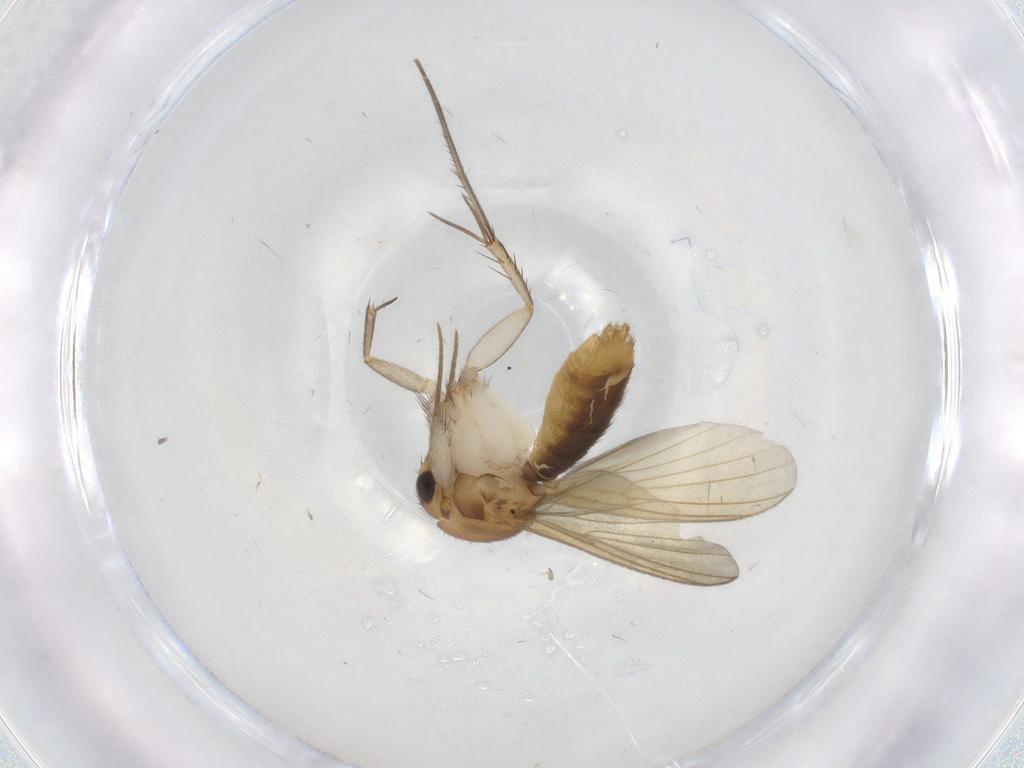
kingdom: Animalia
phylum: Arthropoda
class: Insecta
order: Diptera
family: Mycetophilidae
